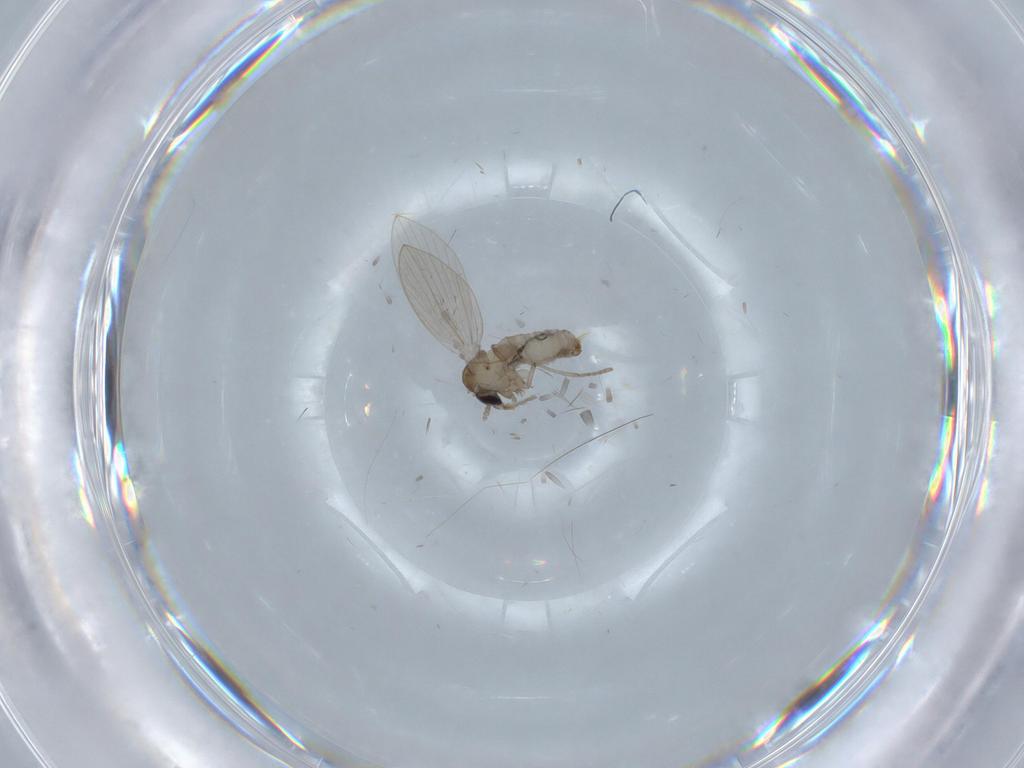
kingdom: Animalia
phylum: Arthropoda
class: Insecta
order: Diptera
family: Psychodidae
